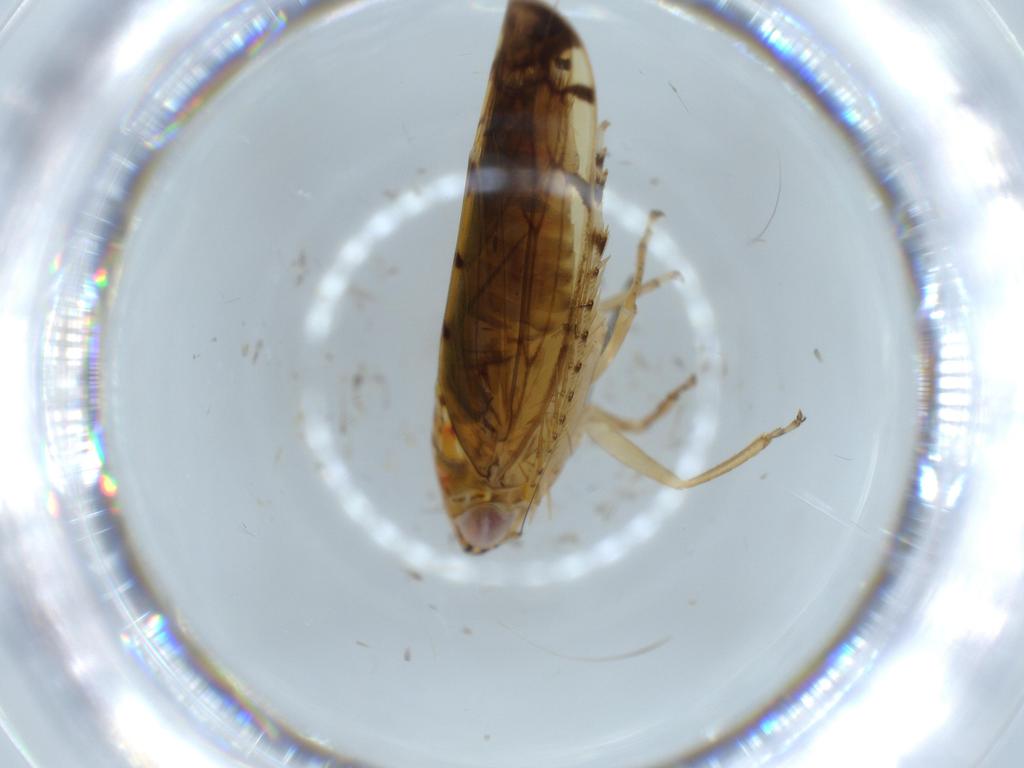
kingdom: Animalia
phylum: Arthropoda
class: Insecta
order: Hemiptera
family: Cicadellidae
